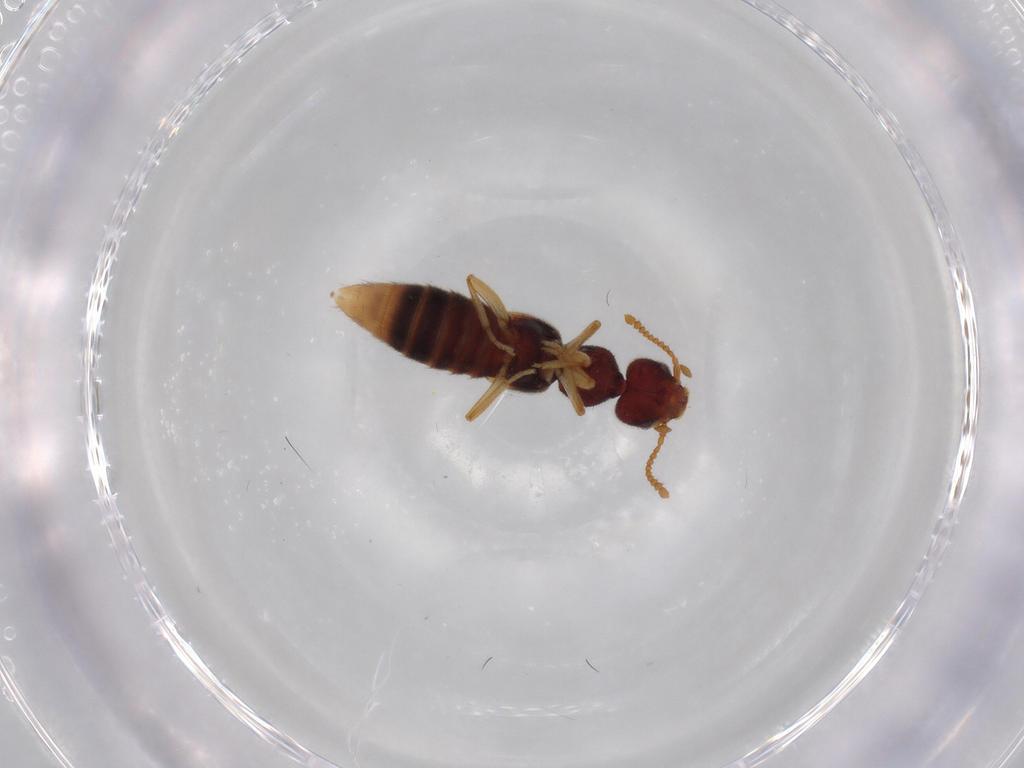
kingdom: Animalia
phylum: Arthropoda
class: Insecta
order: Coleoptera
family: Staphylinidae
